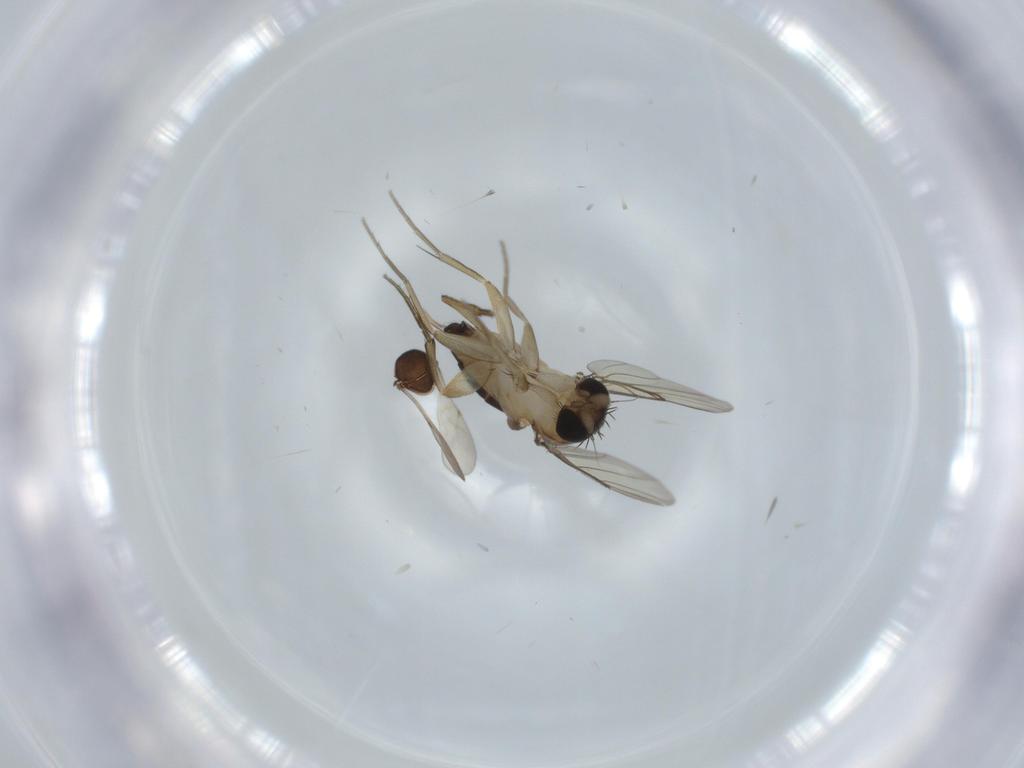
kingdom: Animalia
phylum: Arthropoda
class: Insecta
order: Diptera
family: Phoridae
